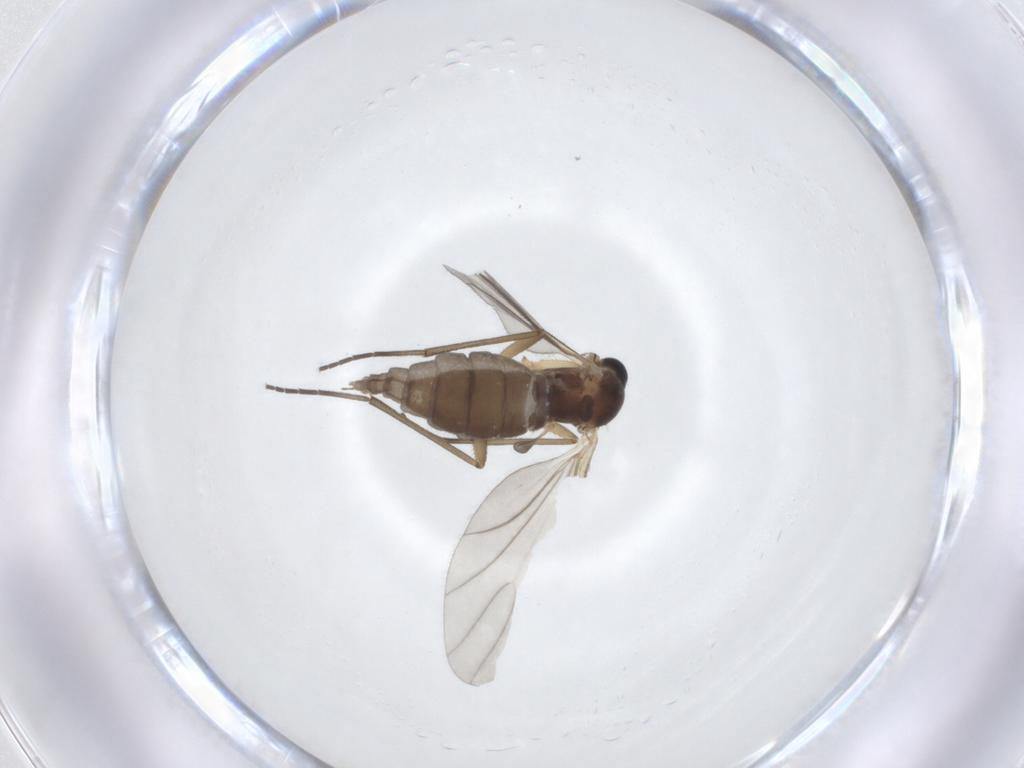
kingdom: Animalia
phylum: Arthropoda
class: Insecta
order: Diptera
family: Sciaridae
